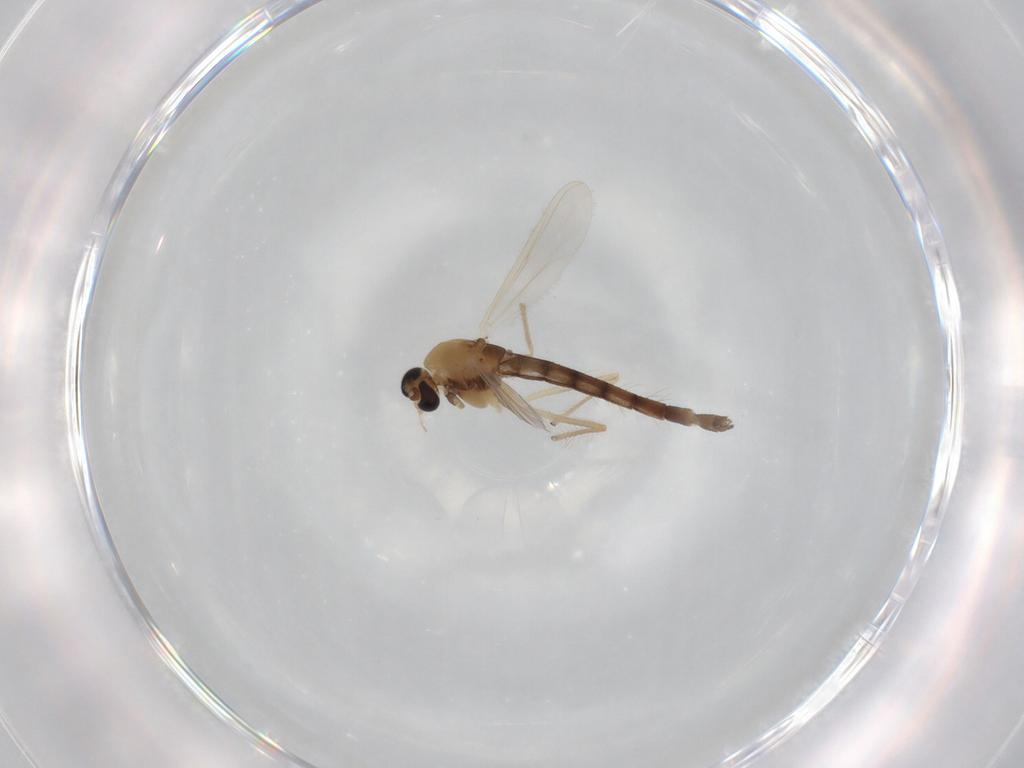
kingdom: Animalia
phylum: Arthropoda
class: Insecta
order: Diptera
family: Chironomidae
